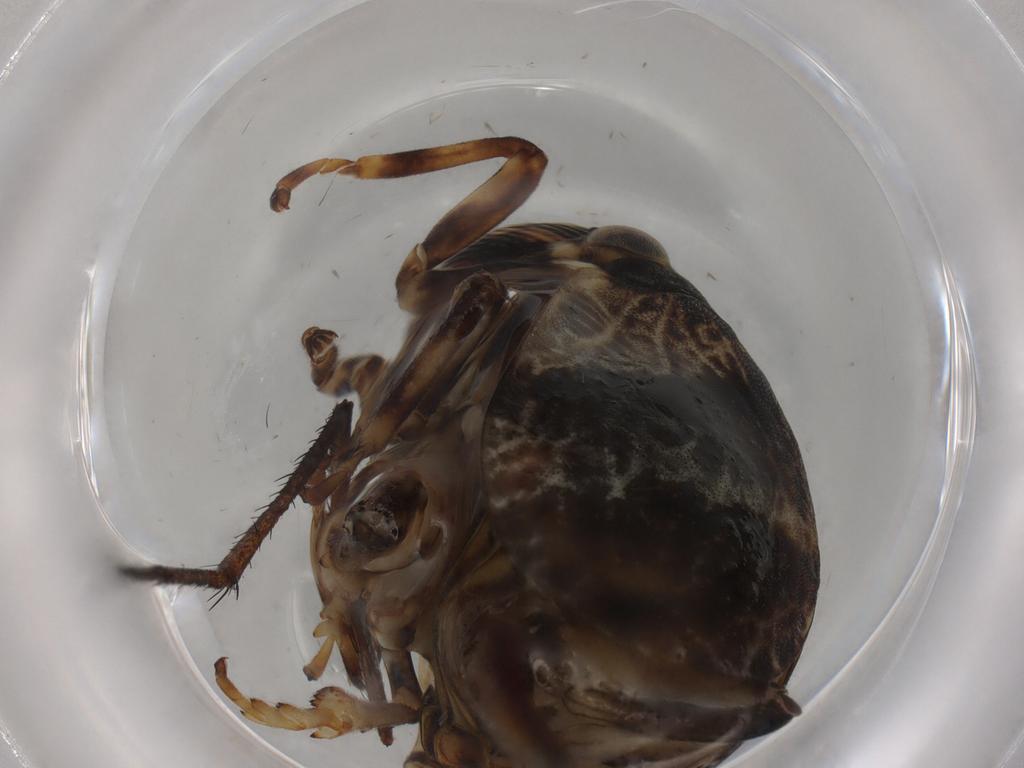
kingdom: Animalia
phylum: Arthropoda
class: Insecta
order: Hemiptera
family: Aphrophoridae
